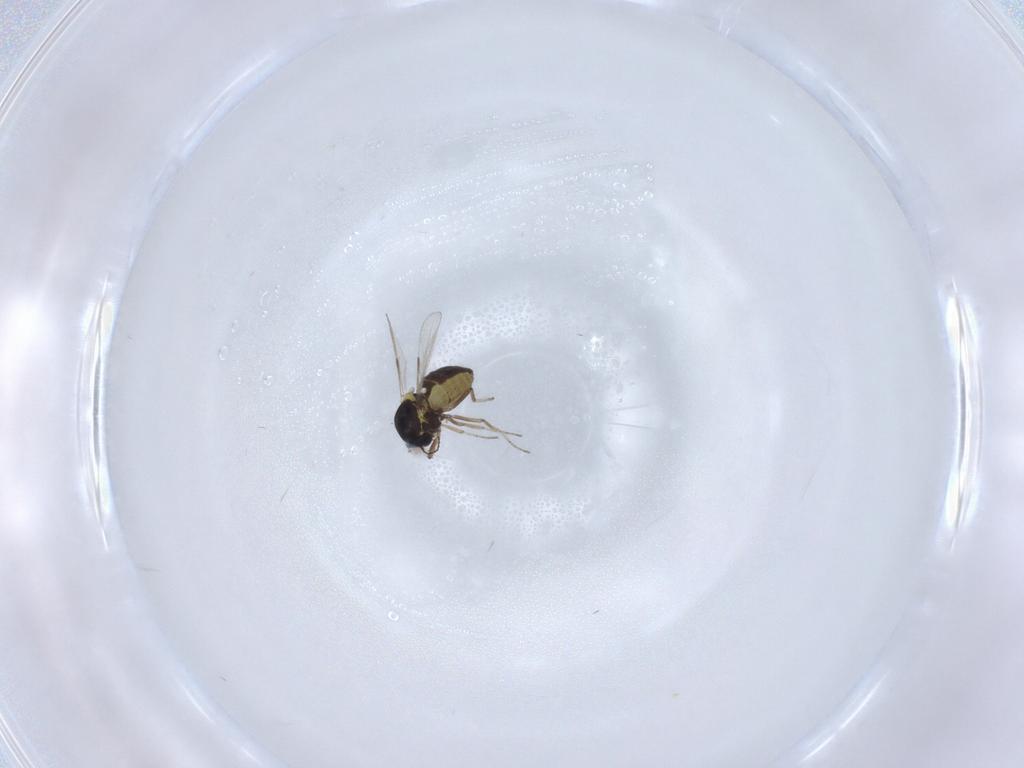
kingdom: Animalia
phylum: Arthropoda
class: Insecta
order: Diptera
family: Ceratopogonidae
